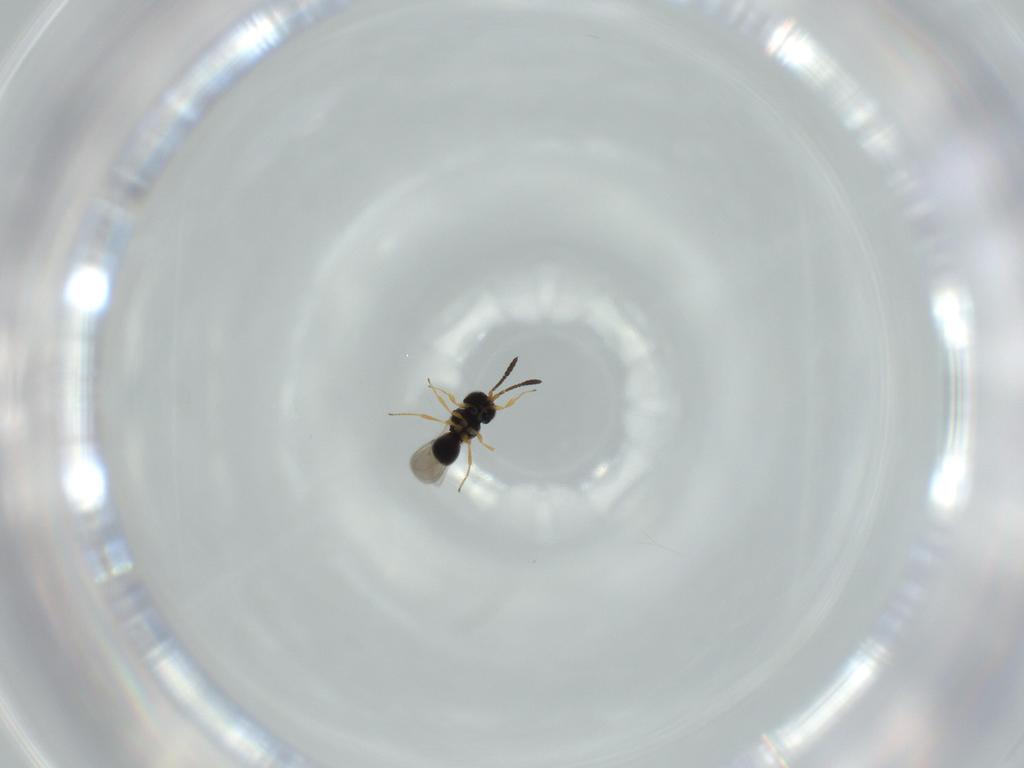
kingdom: Animalia
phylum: Arthropoda
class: Insecta
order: Hymenoptera
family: Scelionidae
